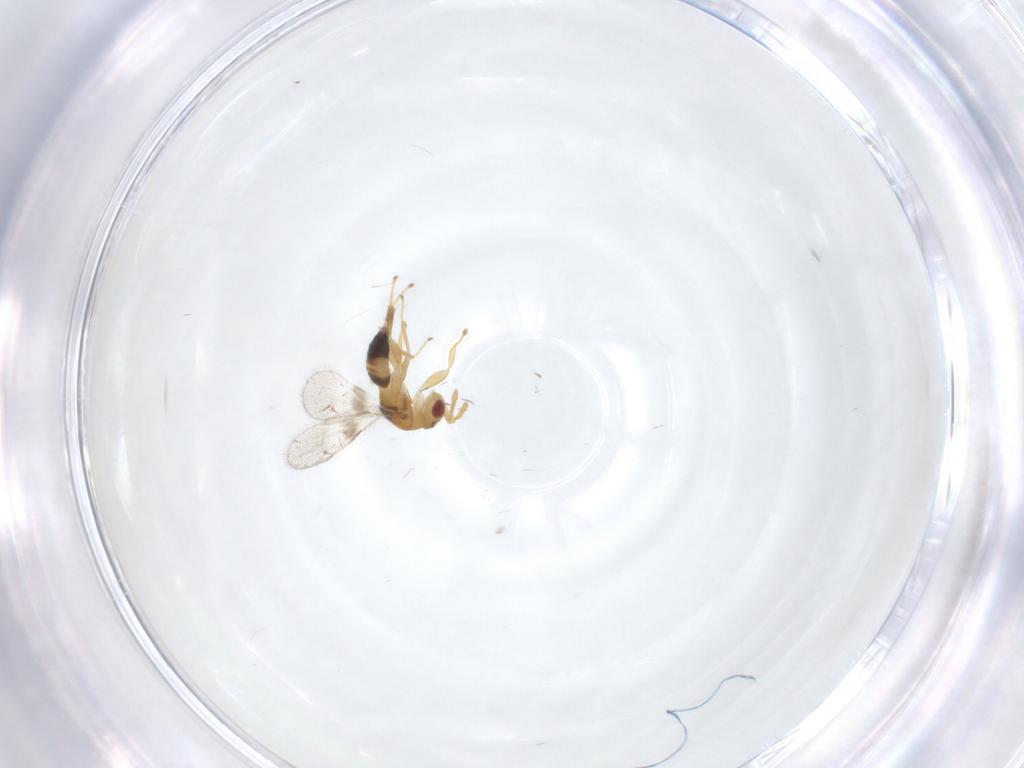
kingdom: Animalia
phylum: Arthropoda
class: Insecta
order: Hymenoptera
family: Torymidae
